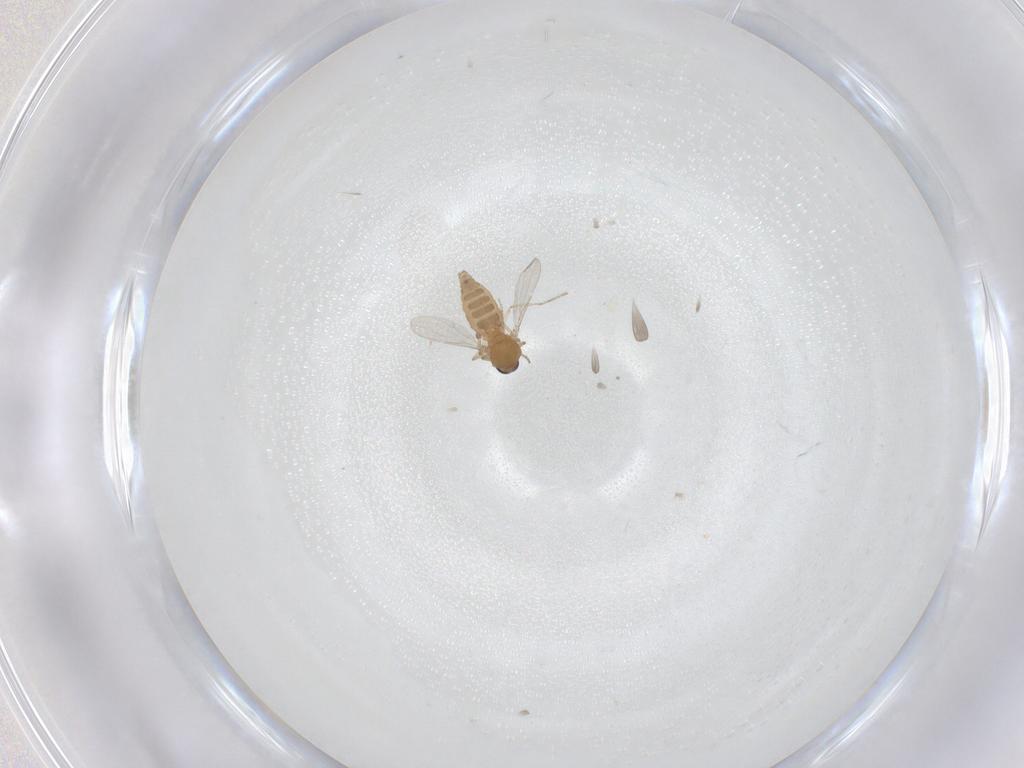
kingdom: Animalia
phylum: Arthropoda
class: Insecta
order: Diptera
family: Ceratopogonidae
